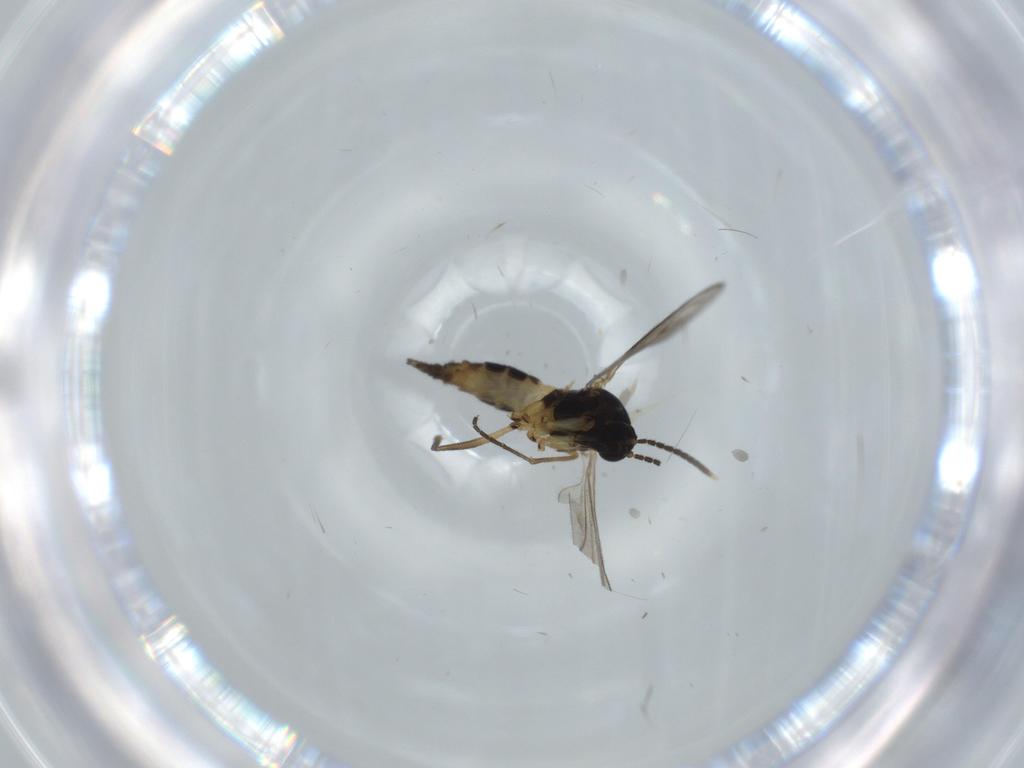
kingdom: Animalia
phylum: Arthropoda
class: Insecta
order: Diptera
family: Sciaridae
